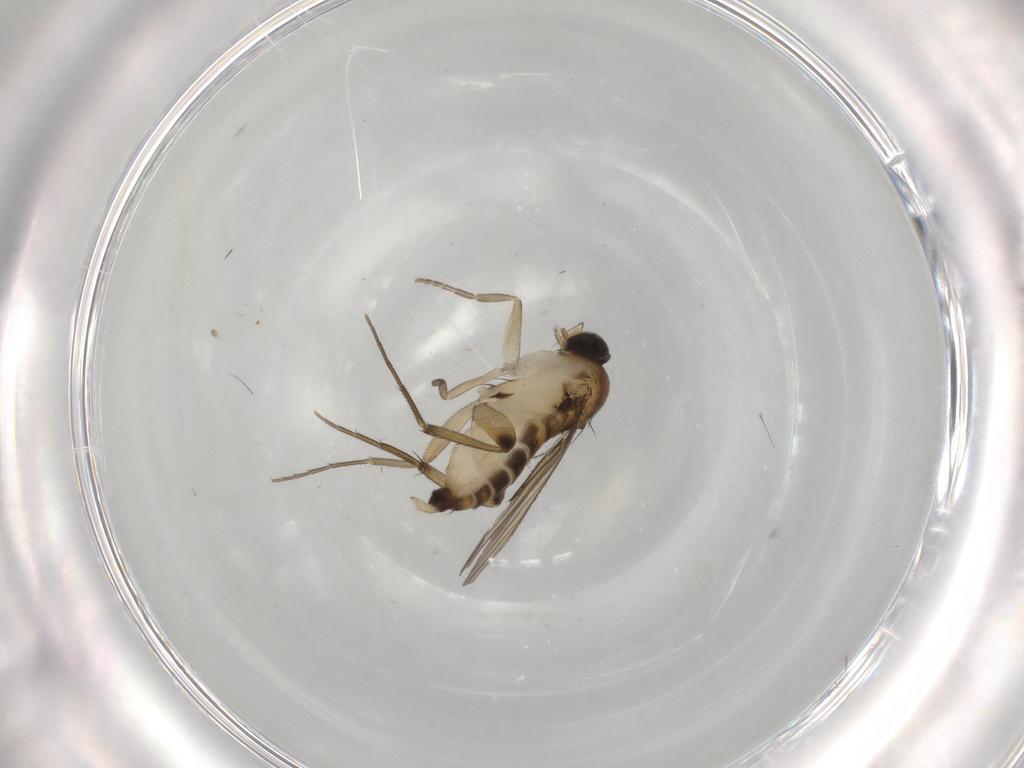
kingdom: Animalia
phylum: Arthropoda
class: Insecta
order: Diptera
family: Phoridae
